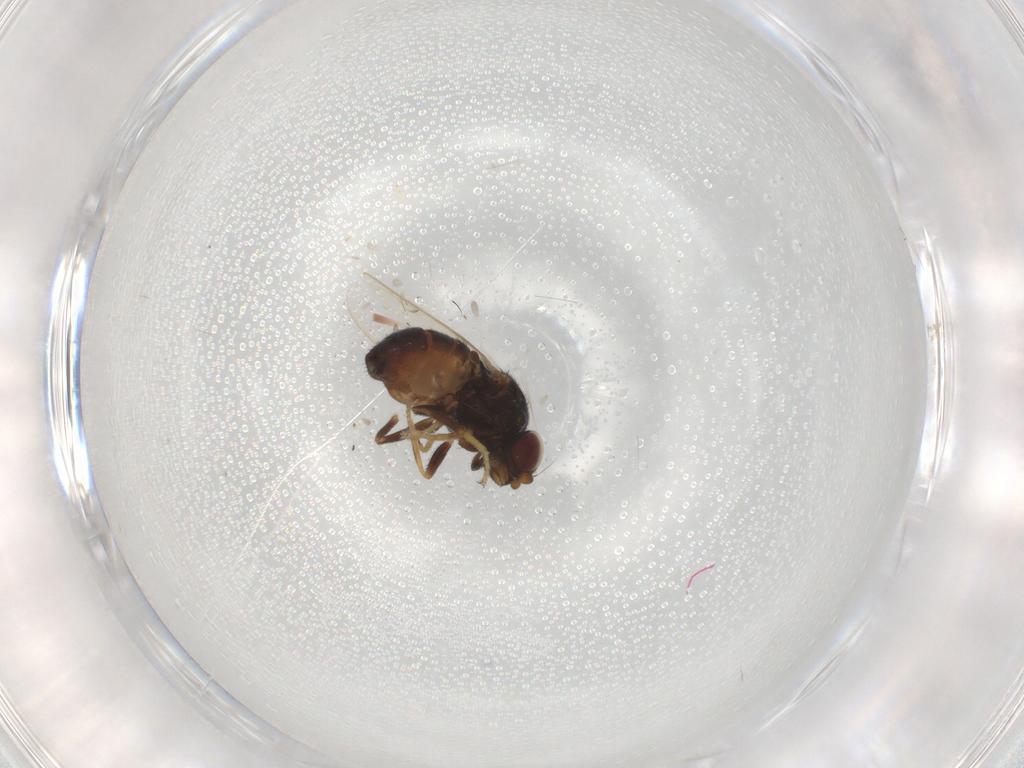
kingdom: Animalia
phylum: Arthropoda
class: Insecta
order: Diptera
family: Chloropidae
